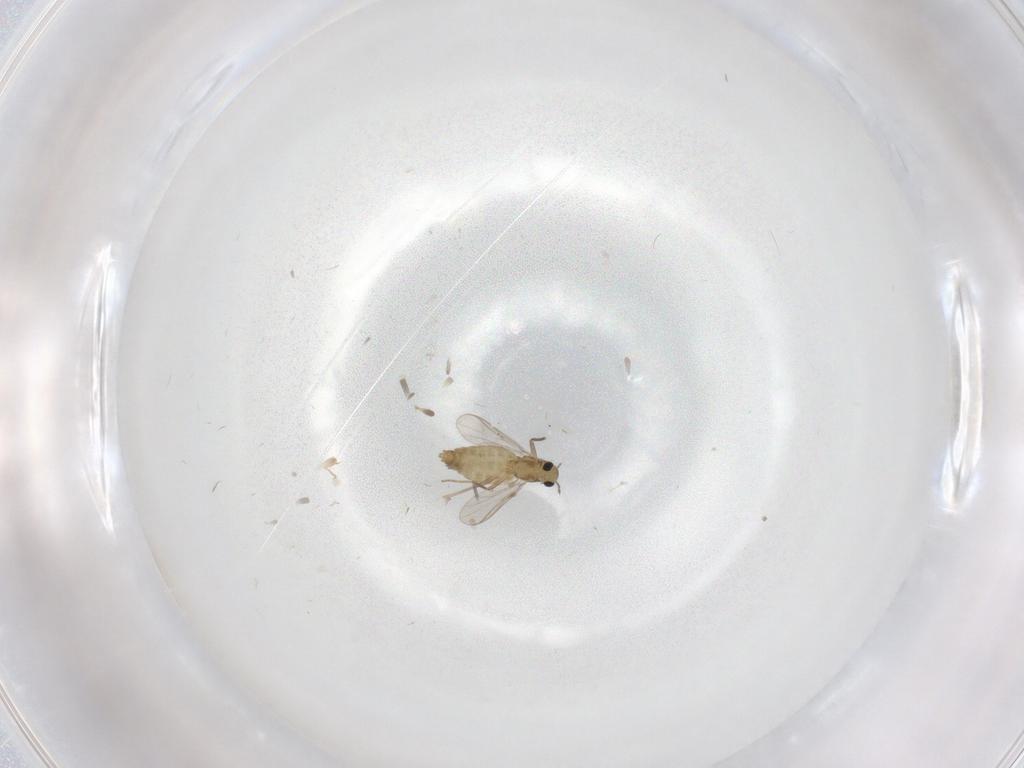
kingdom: Animalia
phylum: Arthropoda
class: Insecta
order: Diptera
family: Dolichopodidae
